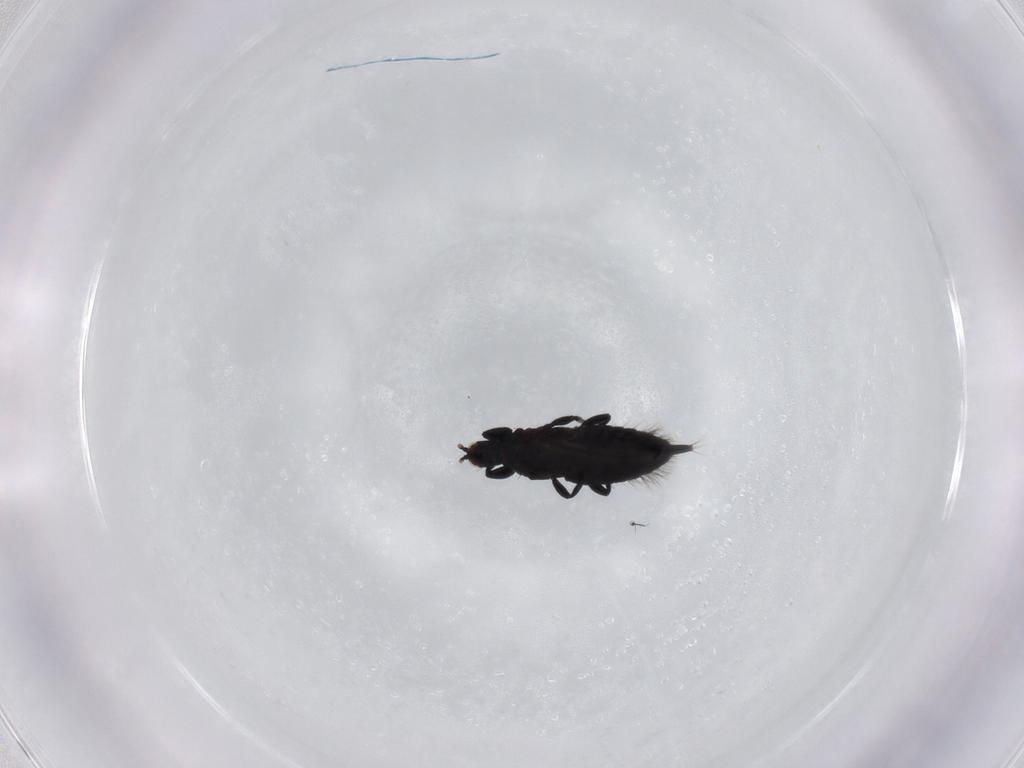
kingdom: Animalia
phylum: Arthropoda
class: Insecta
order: Thysanoptera
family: Phlaeothripidae
